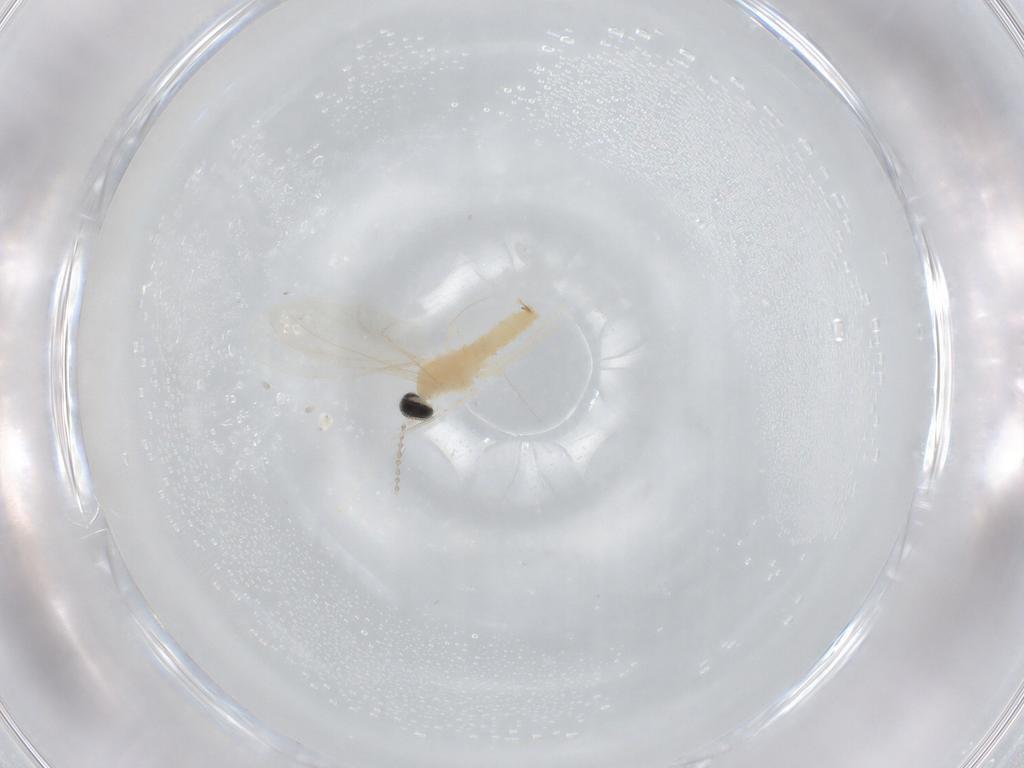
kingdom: Animalia
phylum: Arthropoda
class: Insecta
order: Diptera
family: Cecidomyiidae
